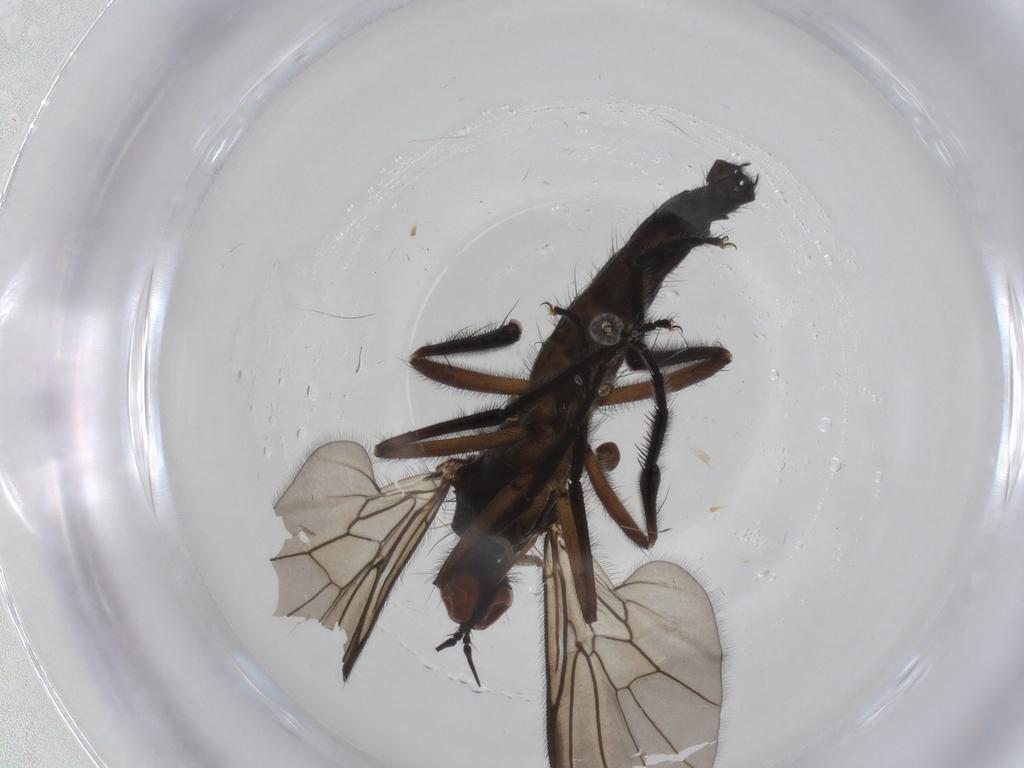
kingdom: Animalia
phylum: Arthropoda
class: Insecta
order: Diptera
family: Empididae
